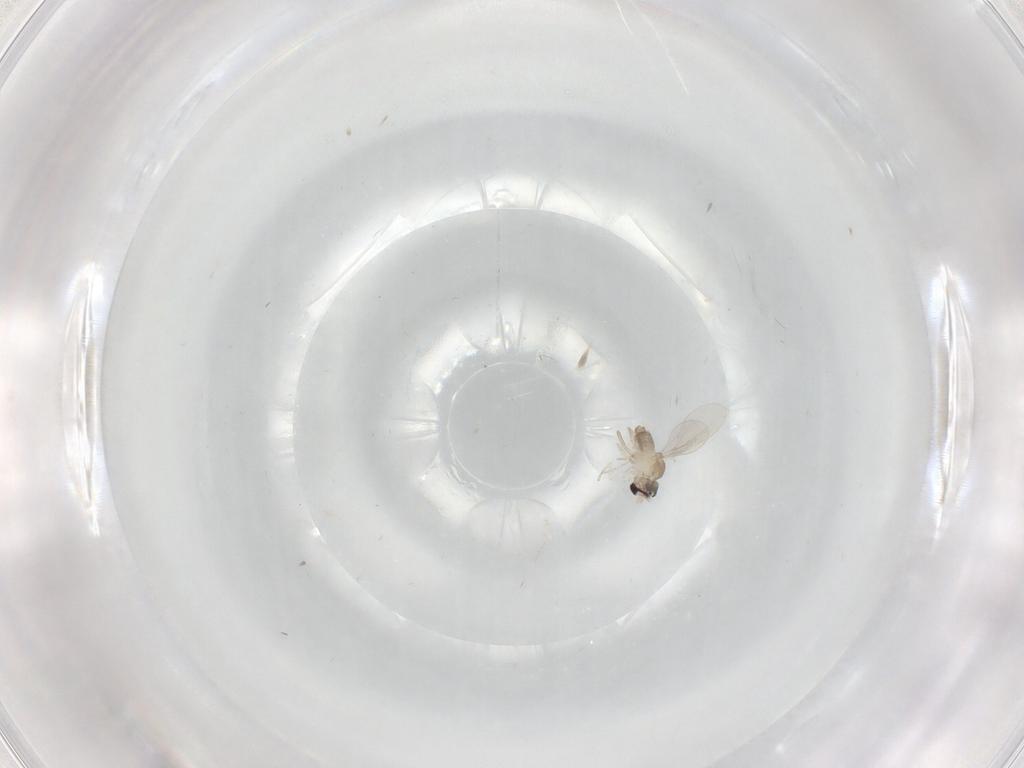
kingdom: Animalia
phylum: Arthropoda
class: Insecta
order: Diptera
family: Cecidomyiidae
